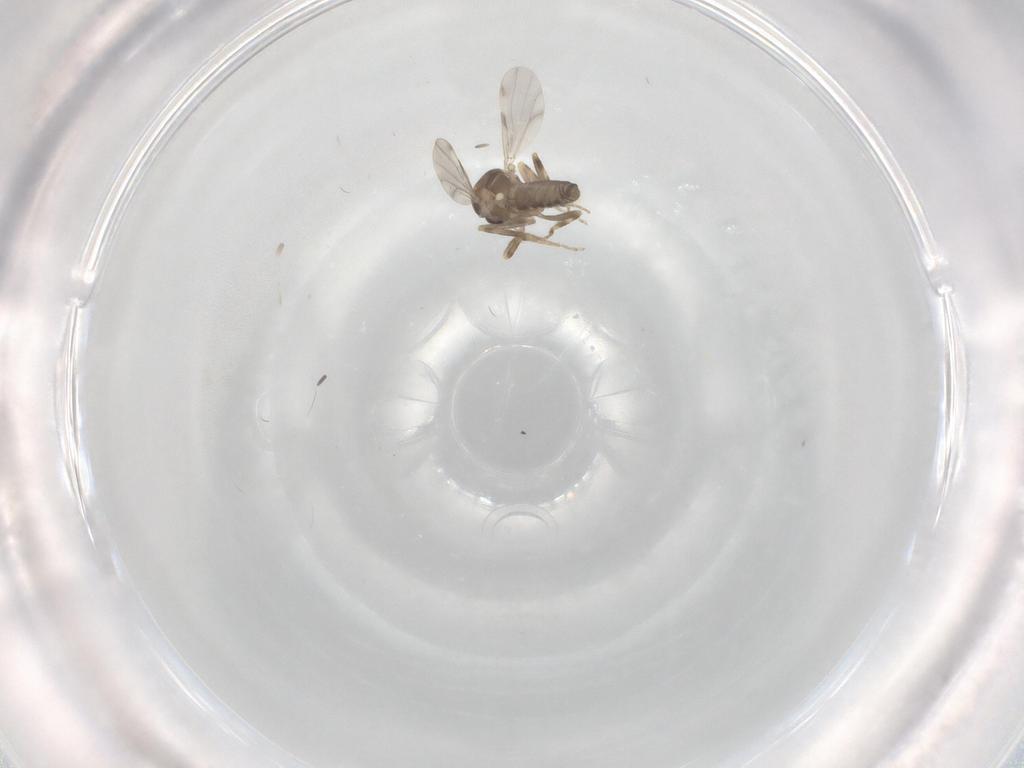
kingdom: Animalia
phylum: Arthropoda
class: Insecta
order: Diptera
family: Ceratopogonidae
